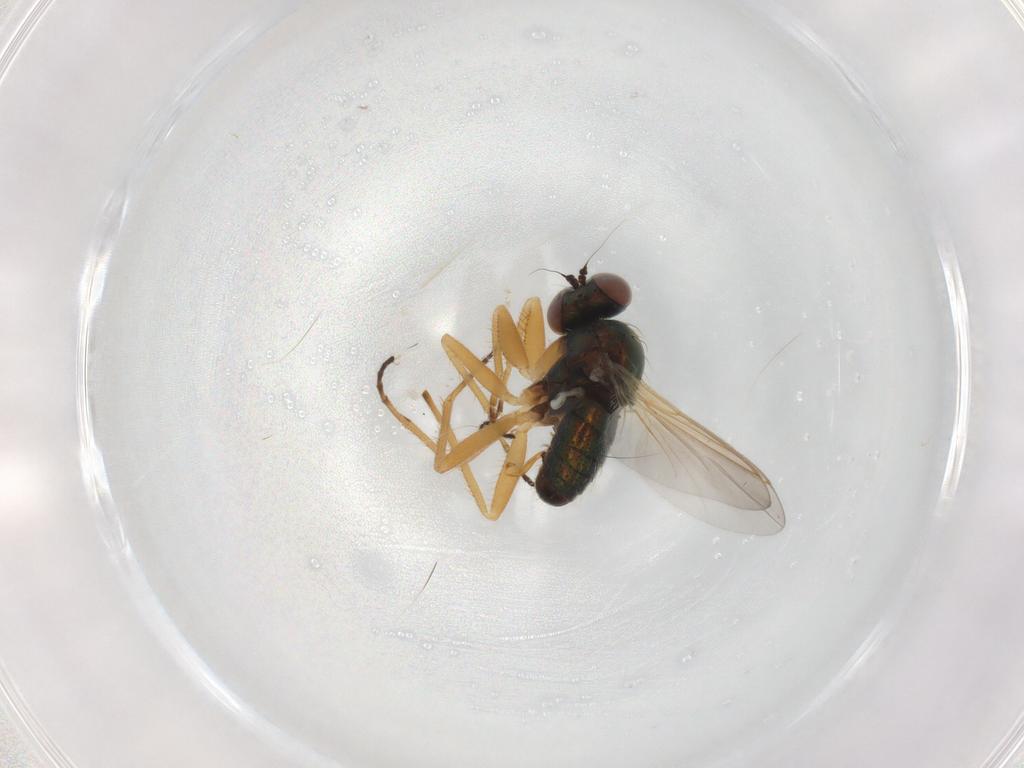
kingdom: Animalia
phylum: Arthropoda
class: Insecta
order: Diptera
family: Dolichopodidae
